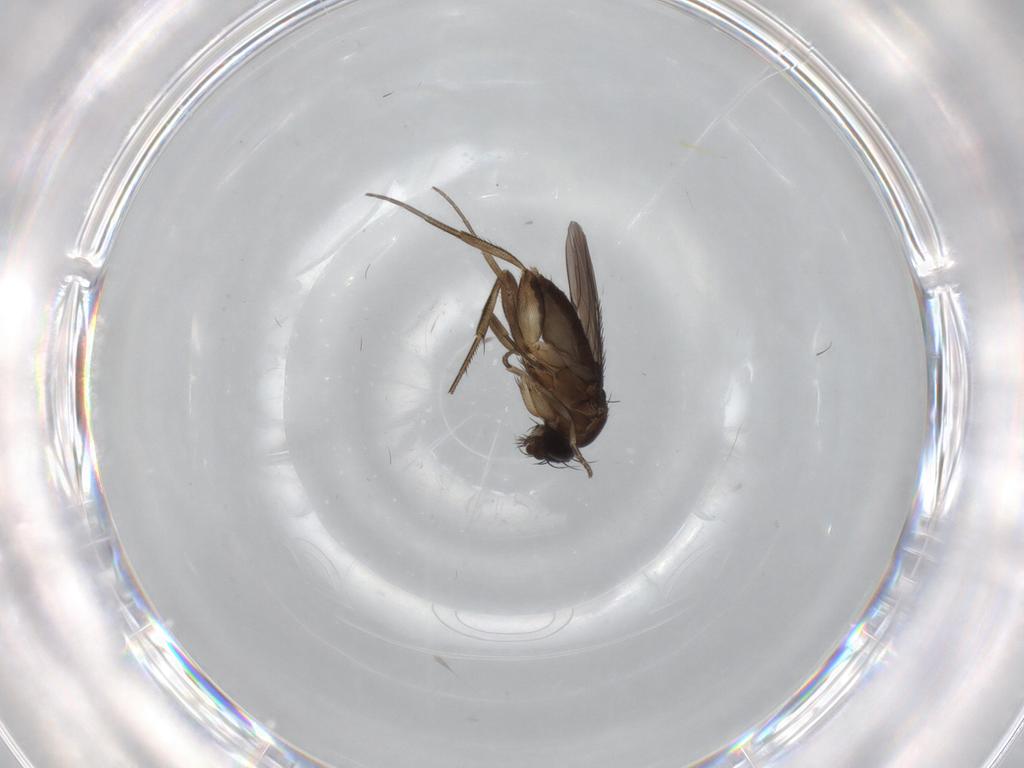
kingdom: Animalia
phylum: Arthropoda
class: Insecta
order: Diptera
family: Phoridae
